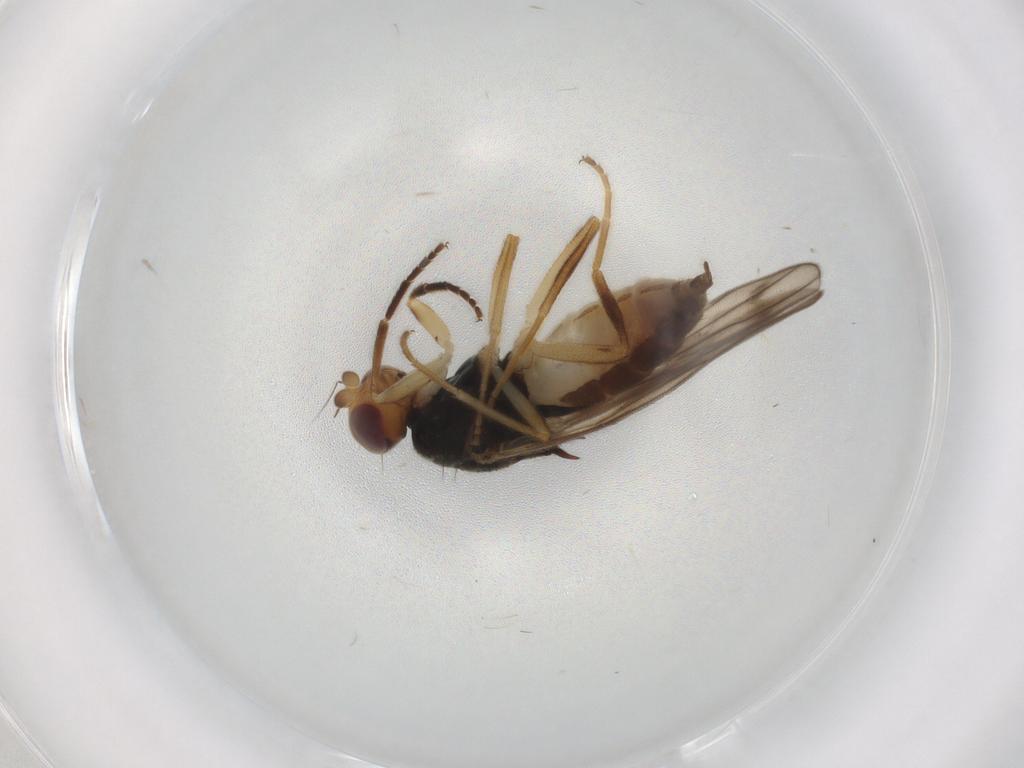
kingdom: Animalia
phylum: Arthropoda
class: Insecta
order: Diptera
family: Chloropidae
